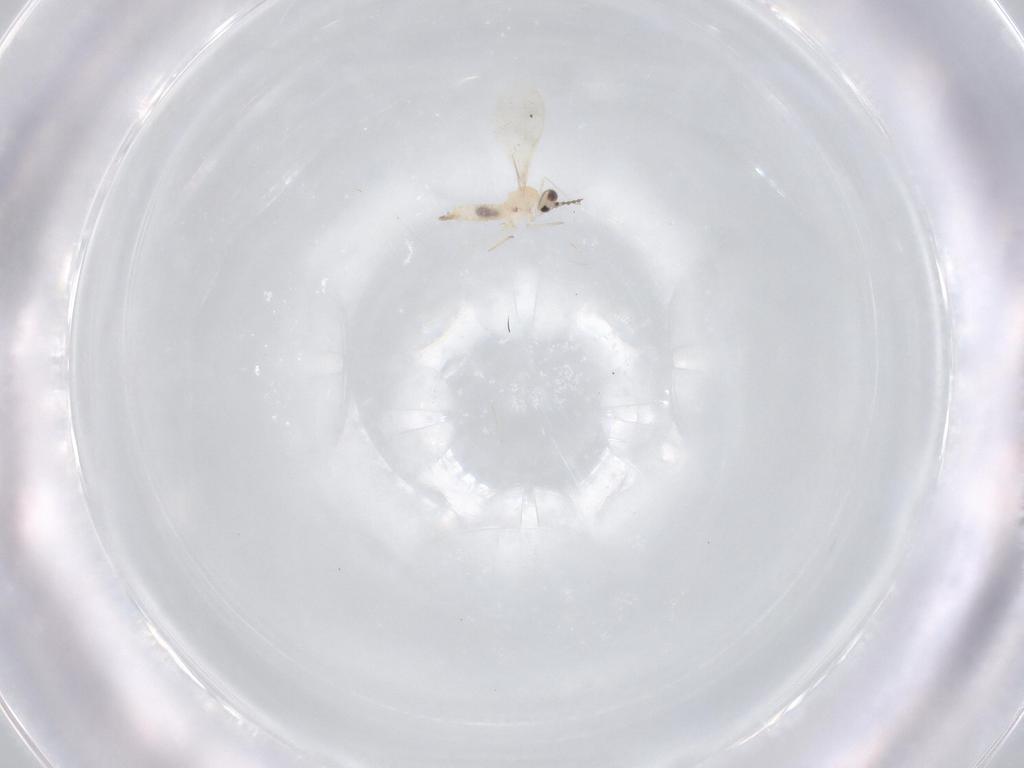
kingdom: Animalia
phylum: Arthropoda
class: Insecta
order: Diptera
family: Cecidomyiidae
